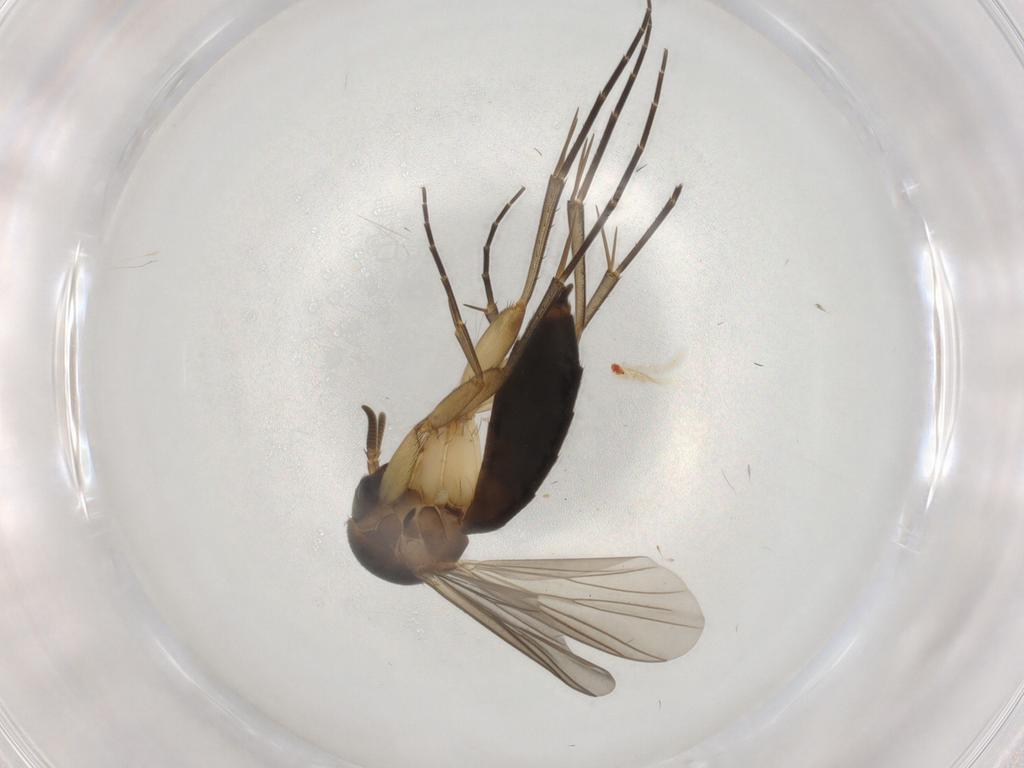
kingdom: Animalia
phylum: Arthropoda
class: Insecta
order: Diptera
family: Mycetophilidae
